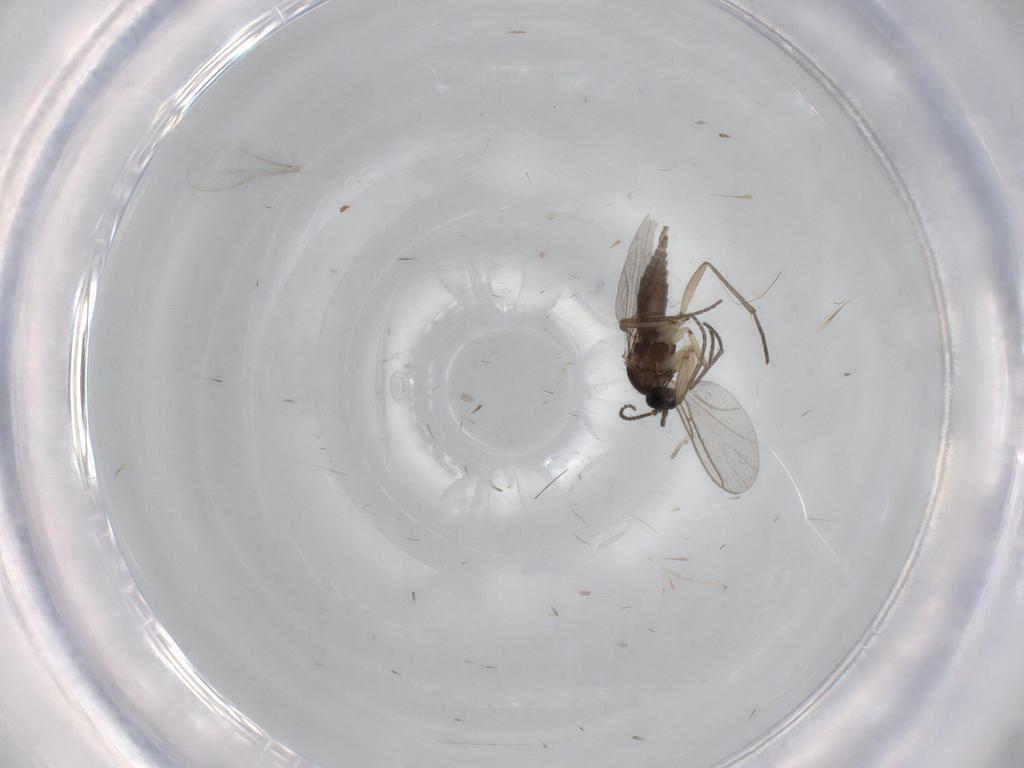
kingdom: Animalia
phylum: Arthropoda
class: Insecta
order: Diptera
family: Sciaridae
